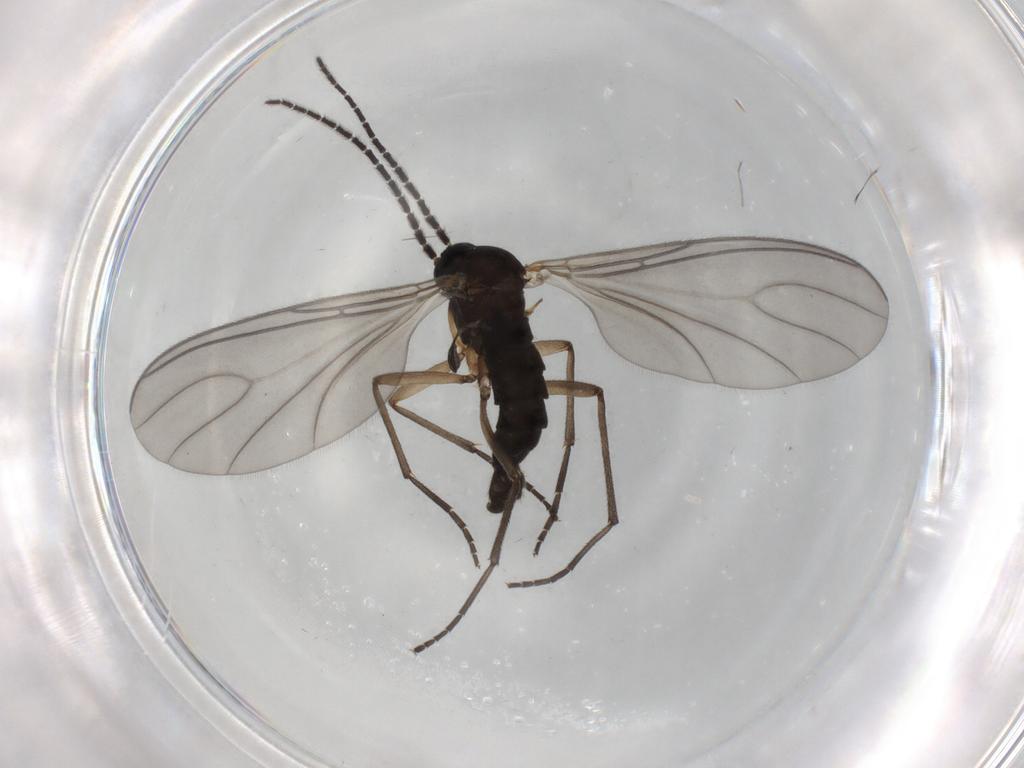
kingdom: Animalia
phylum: Arthropoda
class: Insecta
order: Diptera
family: Sciaridae
